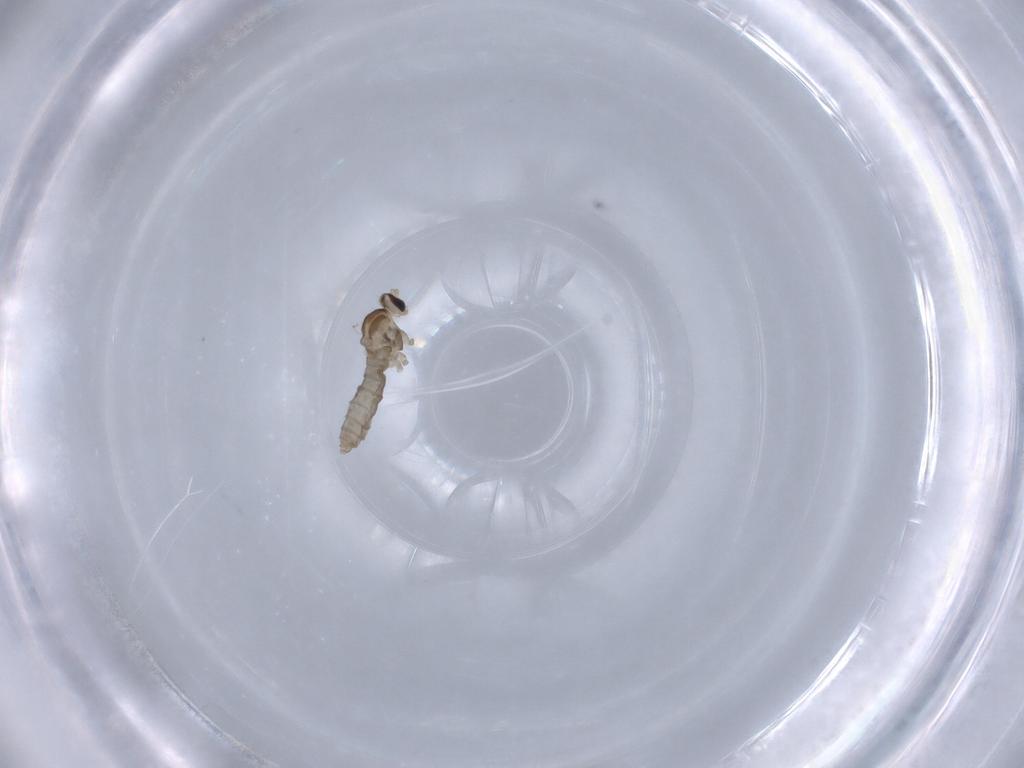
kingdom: Animalia
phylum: Arthropoda
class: Insecta
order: Diptera
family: Cecidomyiidae
